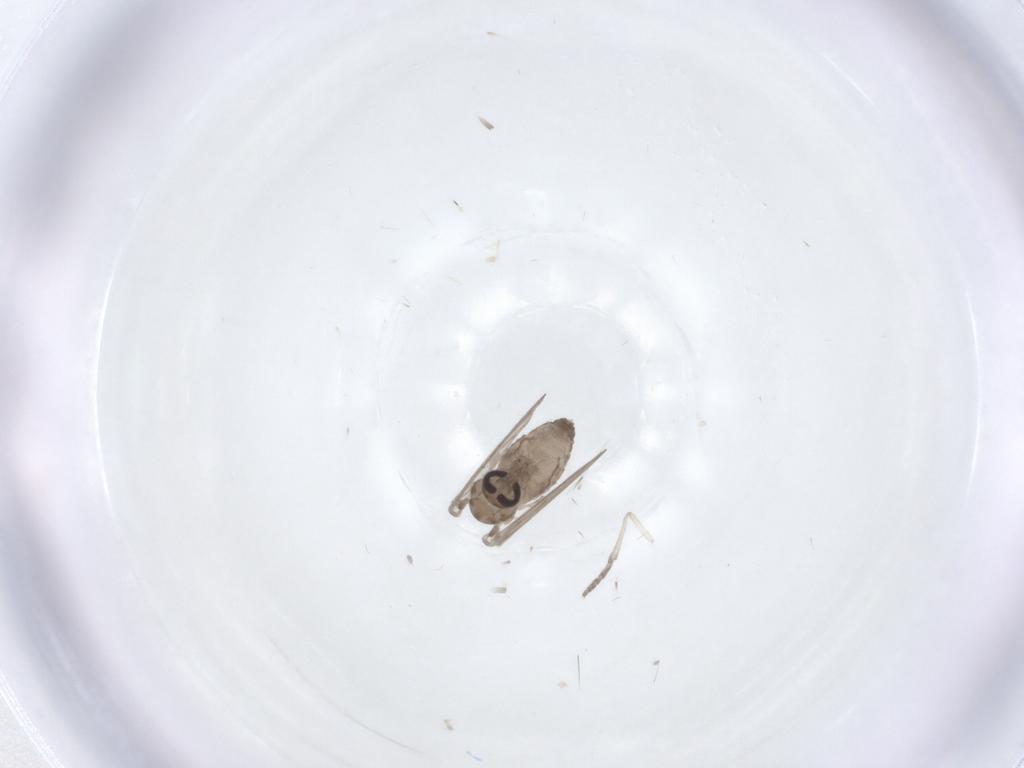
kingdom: Animalia
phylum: Arthropoda
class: Insecta
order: Diptera
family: Psychodidae
